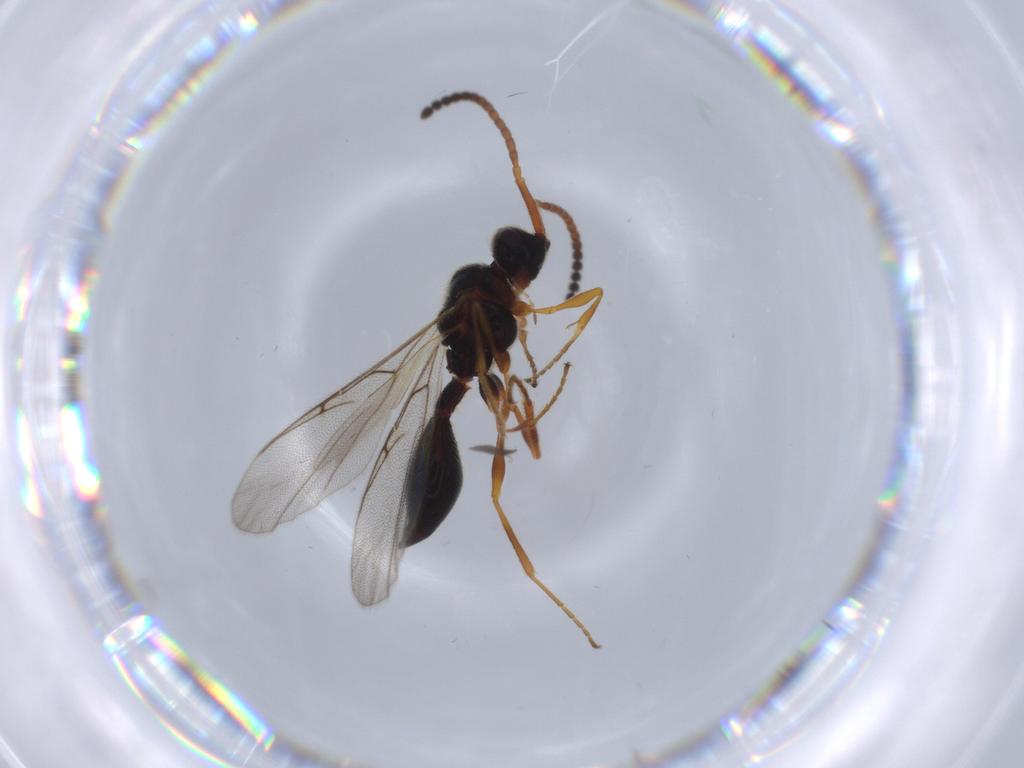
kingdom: Animalia
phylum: Arthropoda
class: Insecta
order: Hymenoptera
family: Diapriidae
